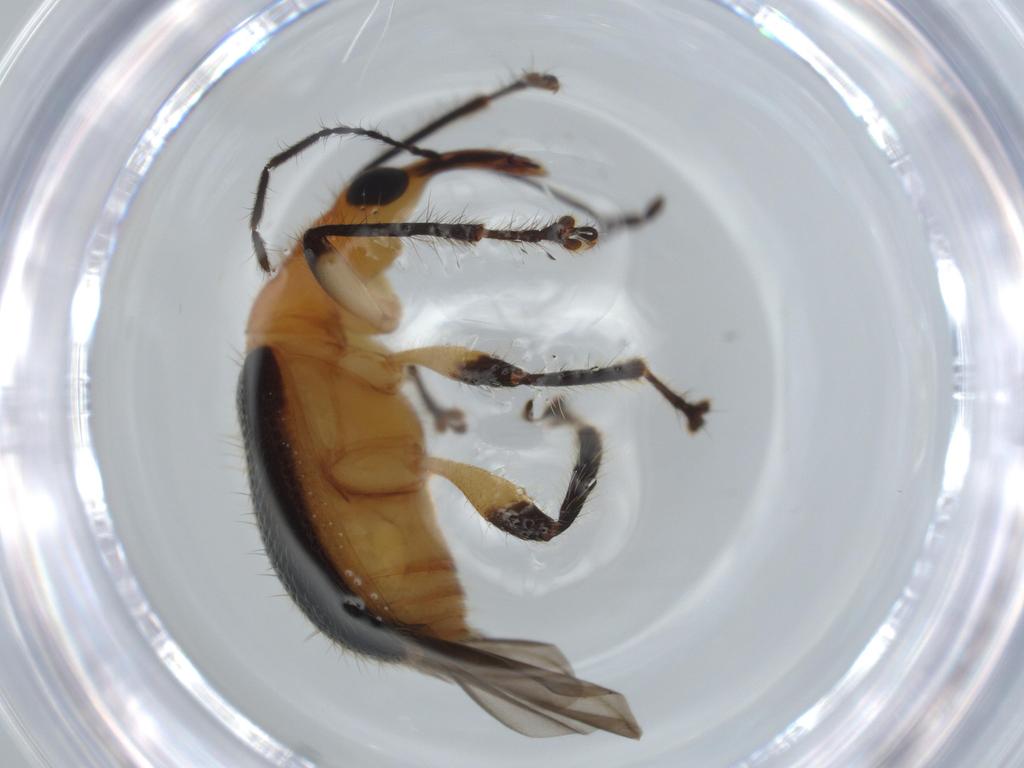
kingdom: Animalia
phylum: Arthropoda
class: Insecta
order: Coleoptera
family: Attelabidae
